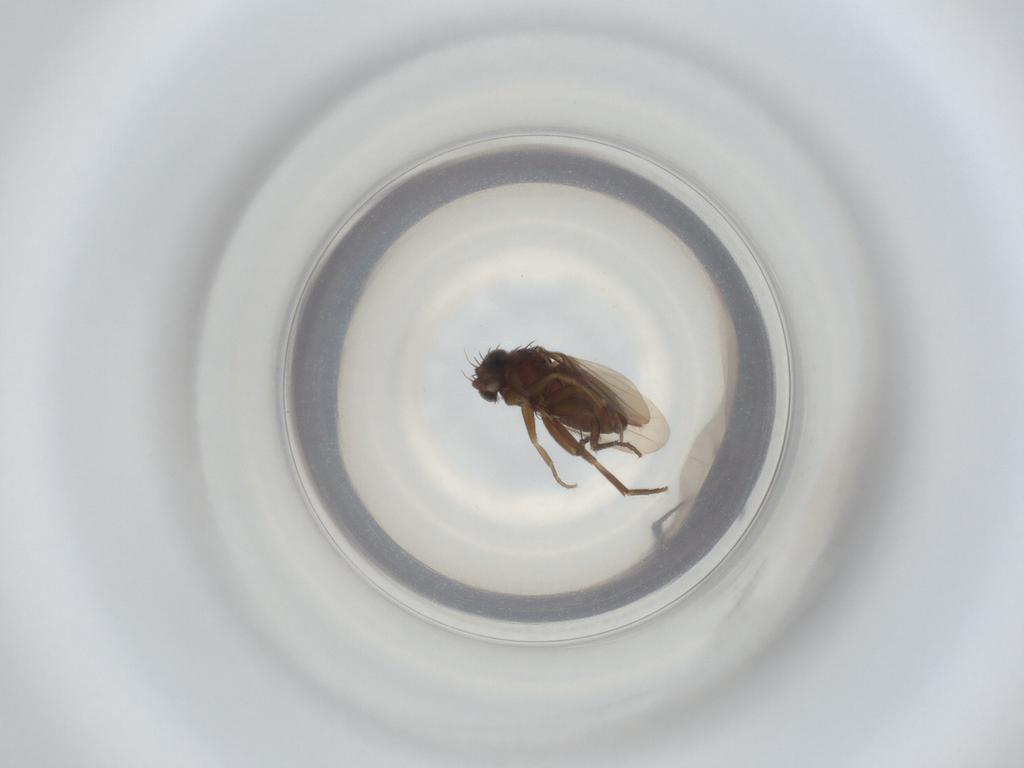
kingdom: Animalia
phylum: Arthropoda
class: Insecta
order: Diptera
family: Phoridae
